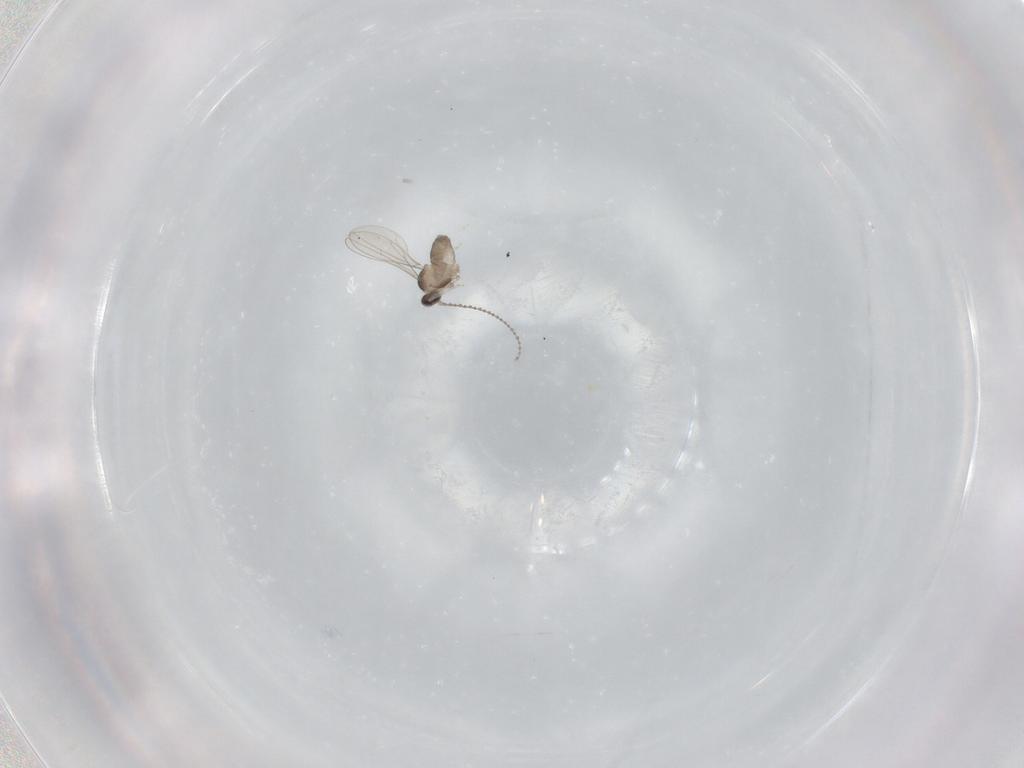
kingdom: Animalia
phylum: Arthropoda
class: Insecta
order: Diptera
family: Cecidomyiidae
